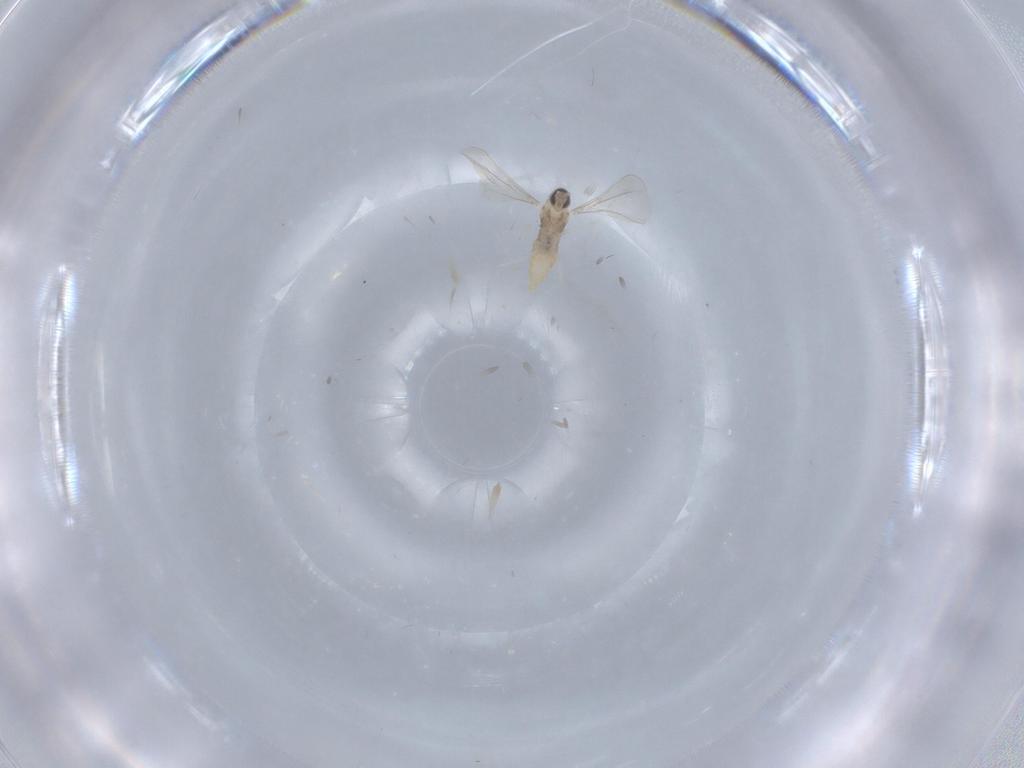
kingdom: Animalia
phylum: Arthropoda
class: Insecta
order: Diptera
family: Cecidomyiidae
